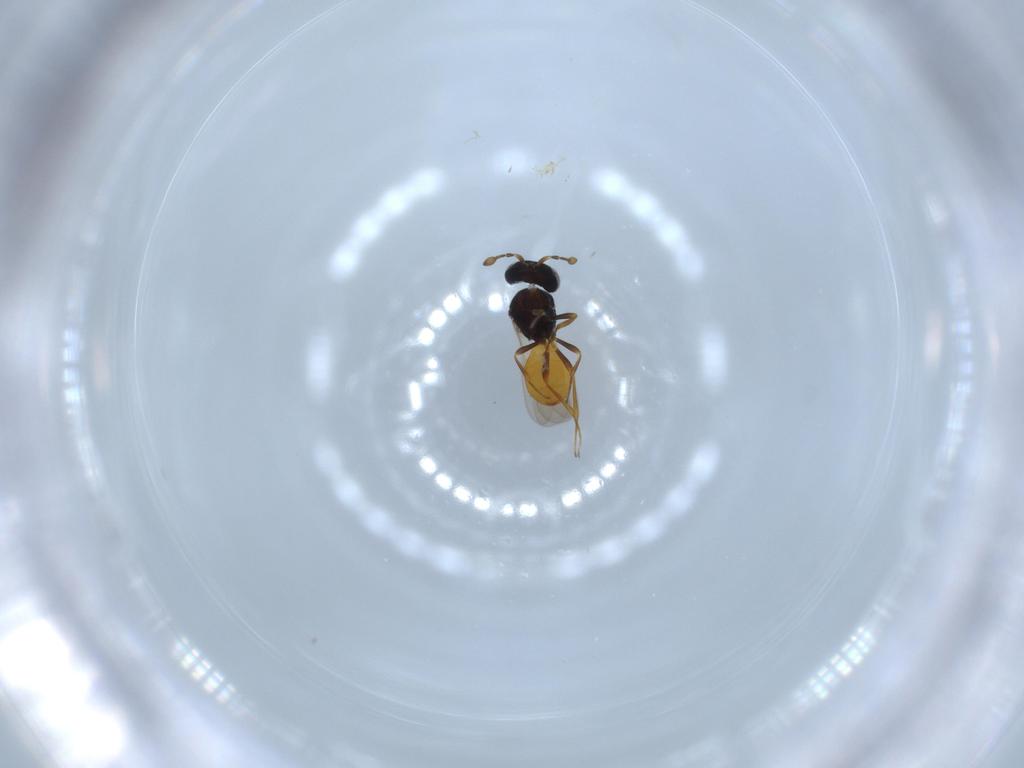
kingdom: Animalia
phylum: Arthropoda
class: Insecta
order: Hymenoptera
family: Scelionidae
